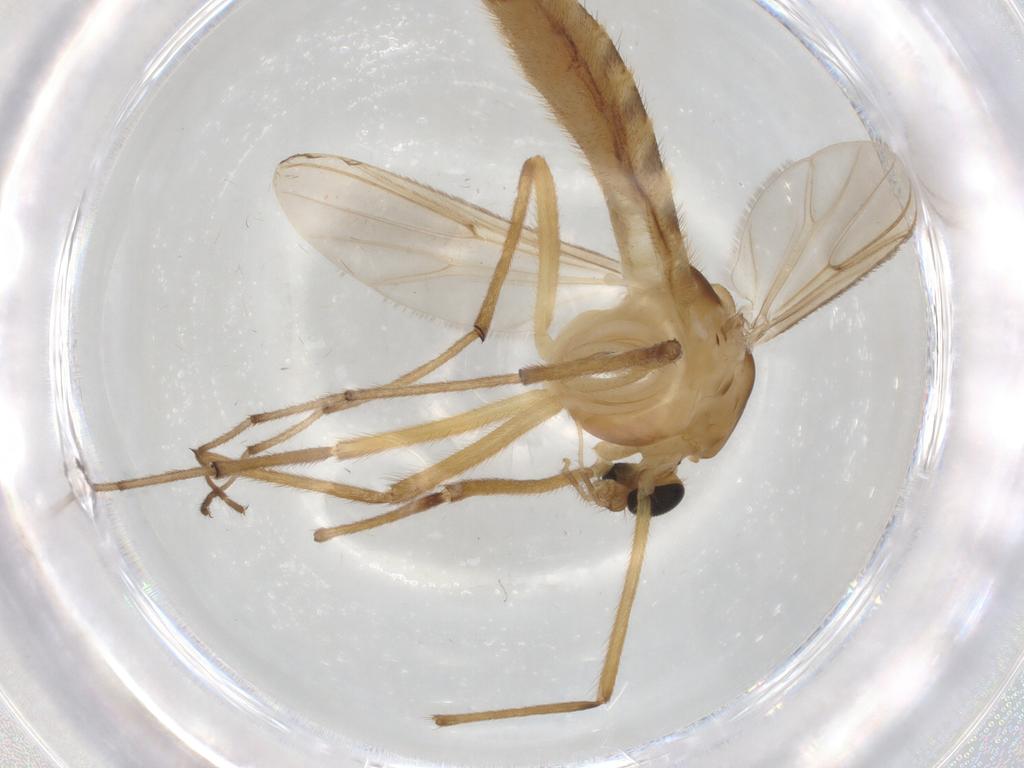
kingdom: Animalia
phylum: Arthropoda
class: Insecta
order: Diptera
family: Chironomidae
